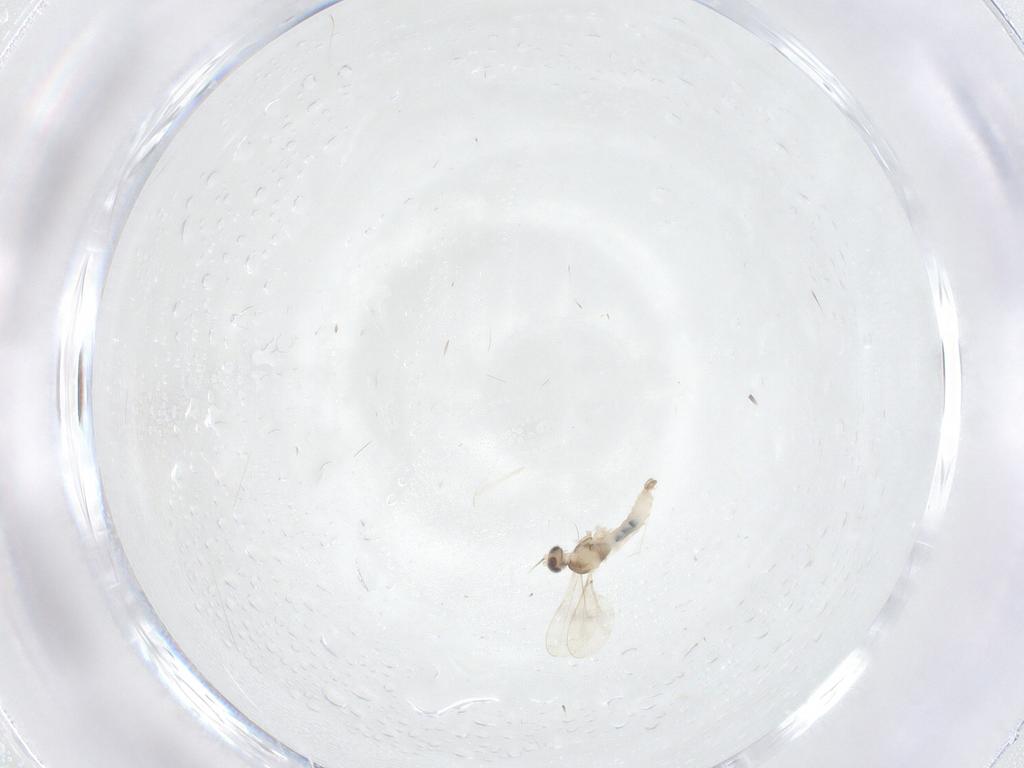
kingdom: Animalia
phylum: Arthropoda
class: Insecta
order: Diptera
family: Cecidomyiidae
